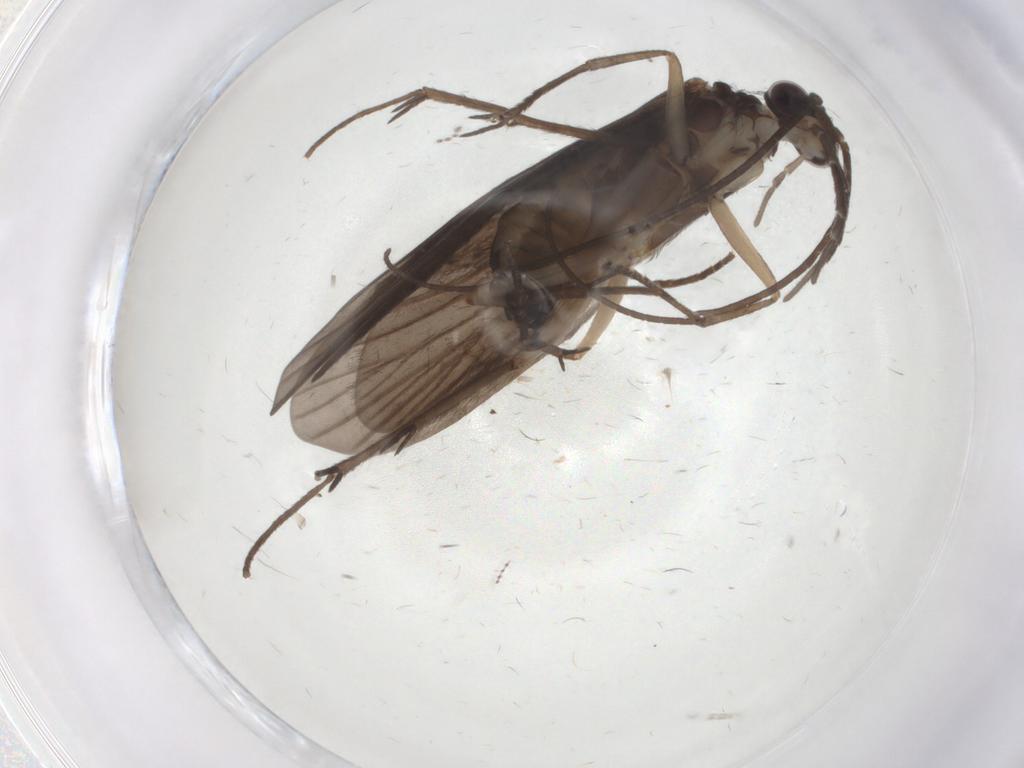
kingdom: Animalia
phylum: Arthropoda
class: Insecta
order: Trichoptera
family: Philopotamidae
